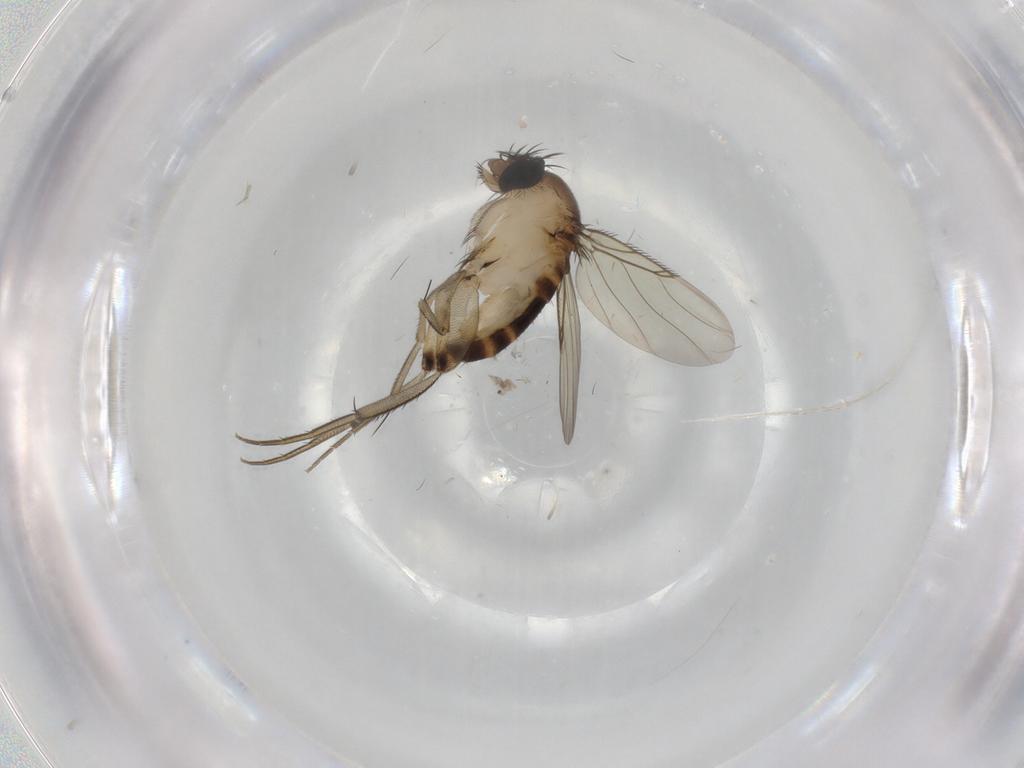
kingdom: Animalia
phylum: Arthropoda
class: Insecta
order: Diptera
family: Phoridae
